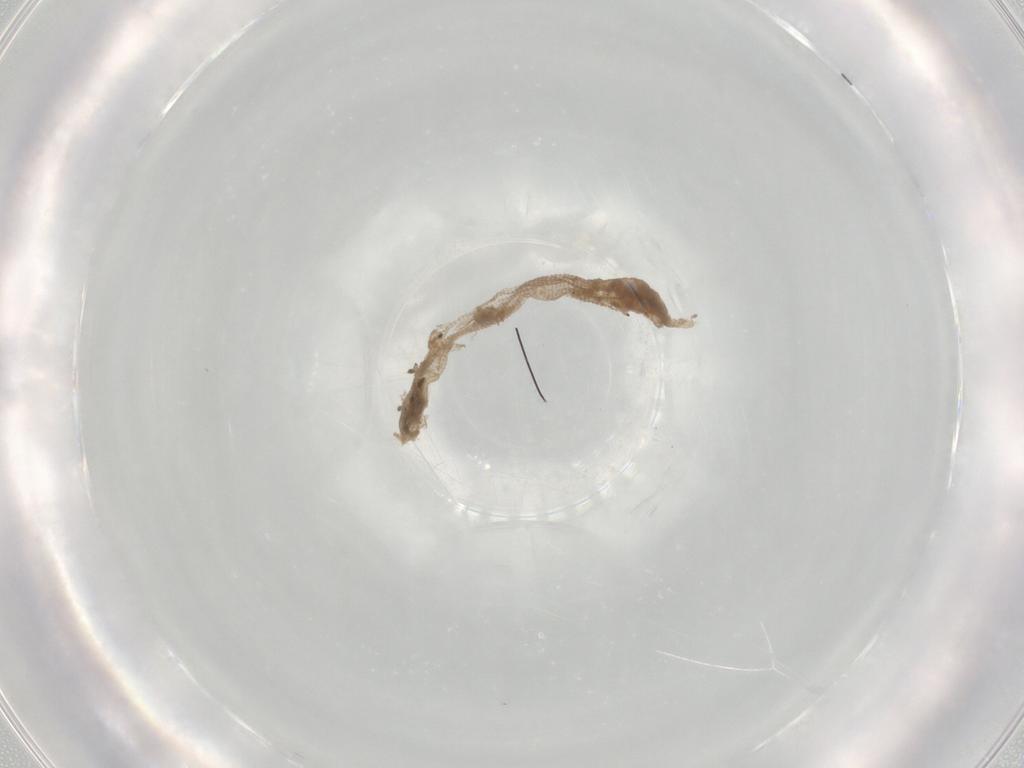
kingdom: Animalia
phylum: Arthropoda
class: Insecta
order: Diptera
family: Chironomidae
